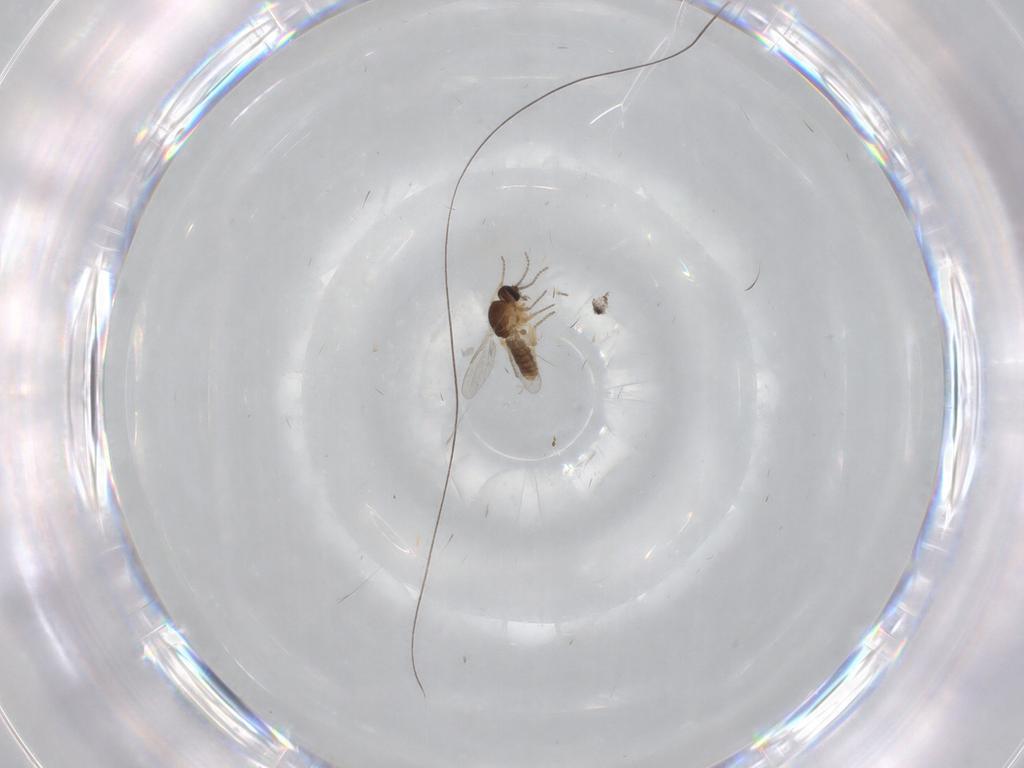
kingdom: Animalia
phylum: Arthropoda
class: Insecta
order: Diptera
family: Ceratopogonidae
